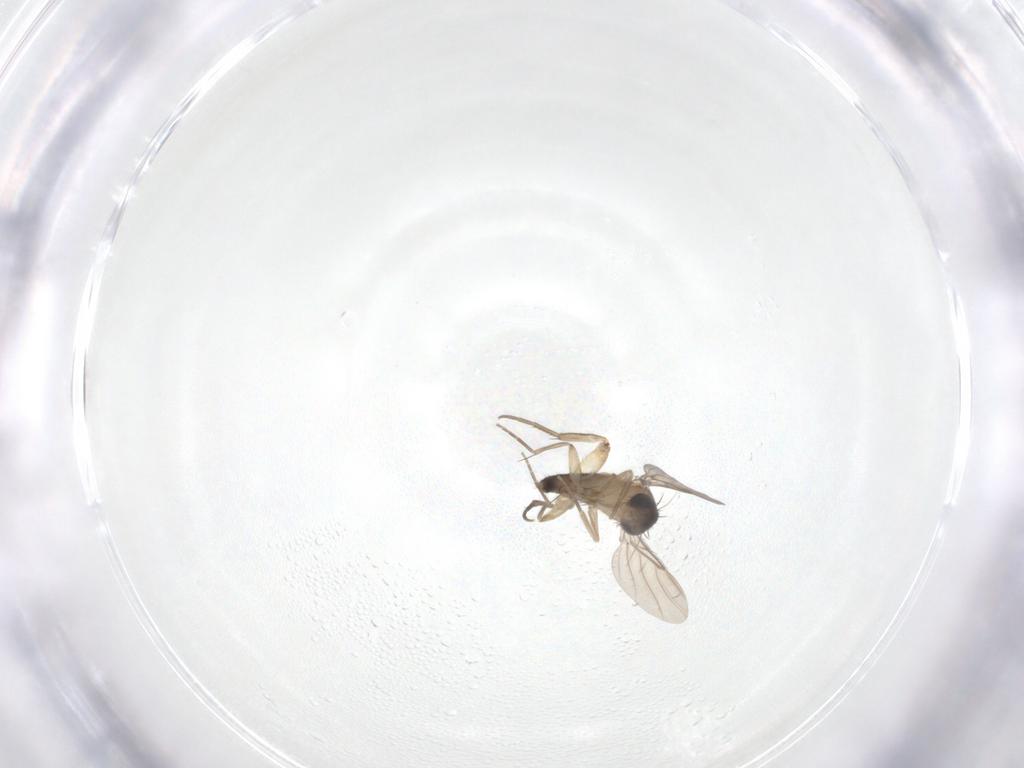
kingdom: Animalia
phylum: Arthropoda
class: Insecta
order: Diptera
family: Phoridae
